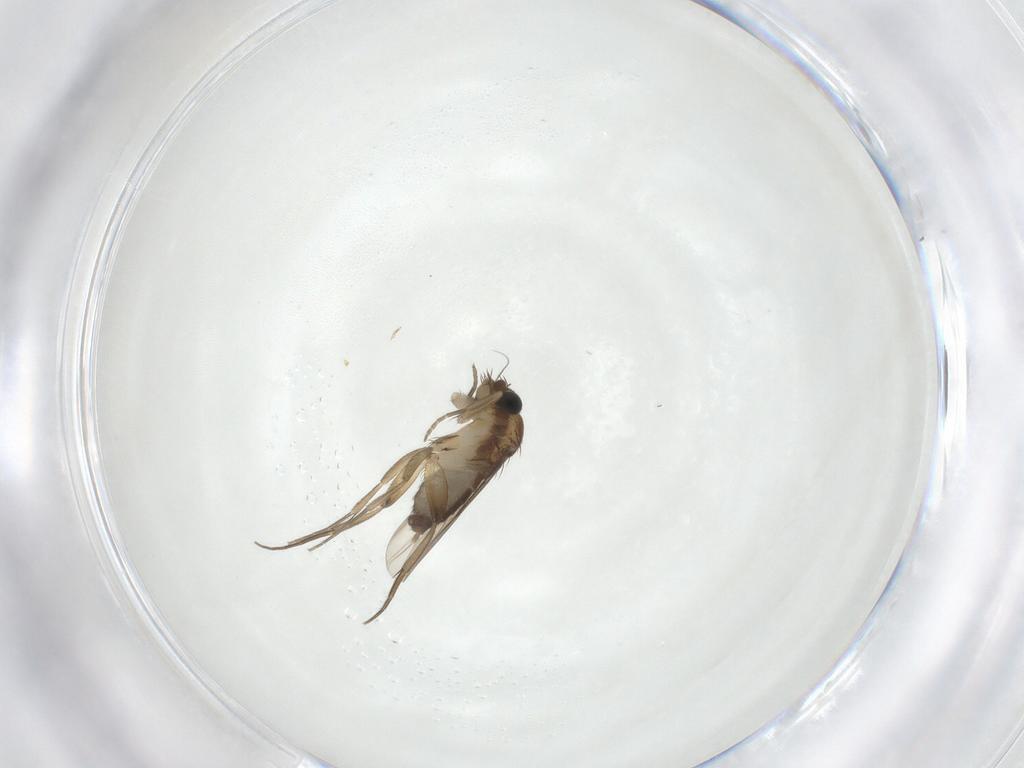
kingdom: Animalia
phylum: Arthropoda
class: Insecta
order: Diptera
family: Phoridae
